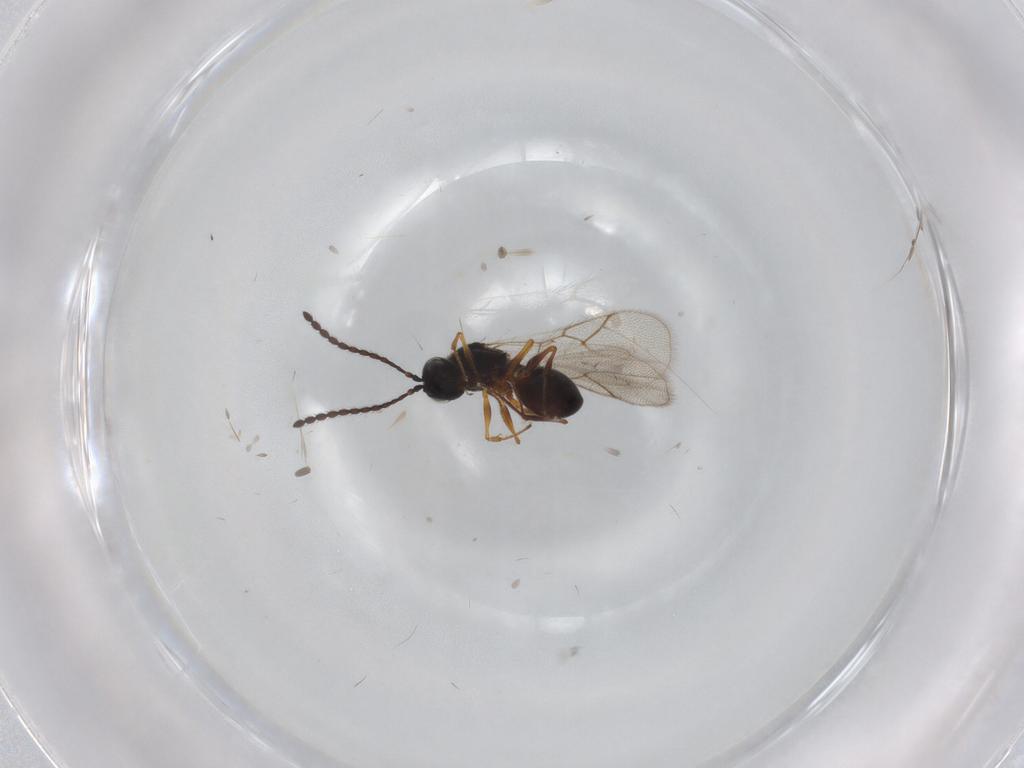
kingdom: Animalia
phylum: Arthropoda
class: Insecta
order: Hymenoptera
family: Figitidae
